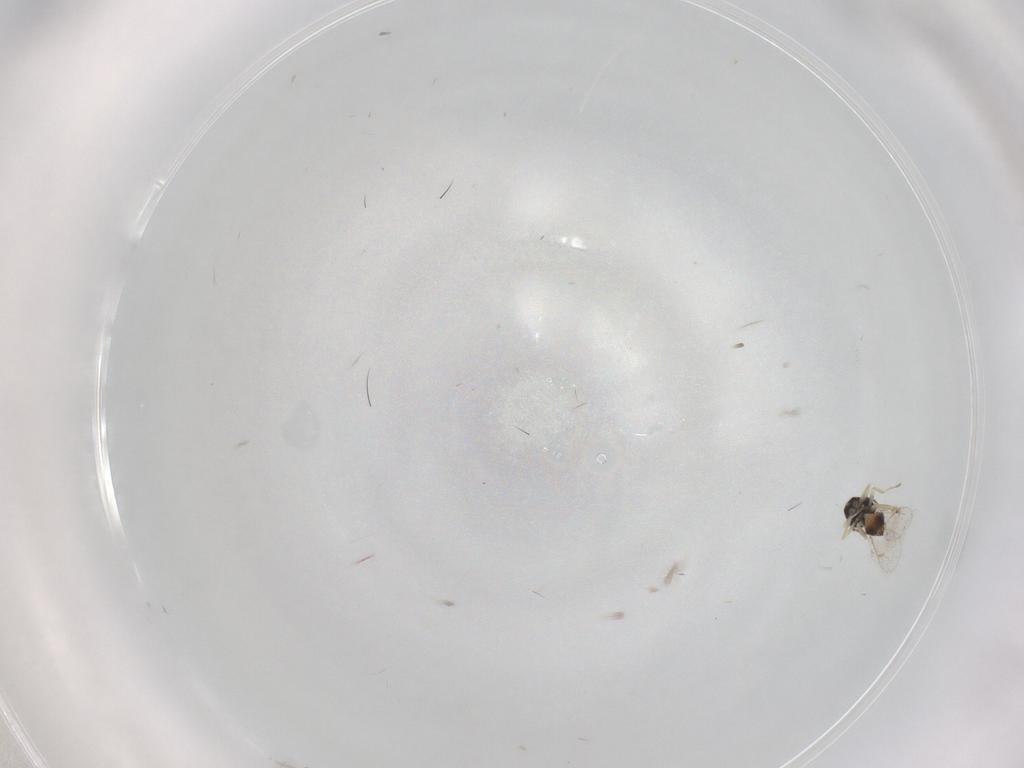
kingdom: Animalia
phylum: Arthropoda
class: Insecta
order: Hymenoptera
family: Eulophidae
